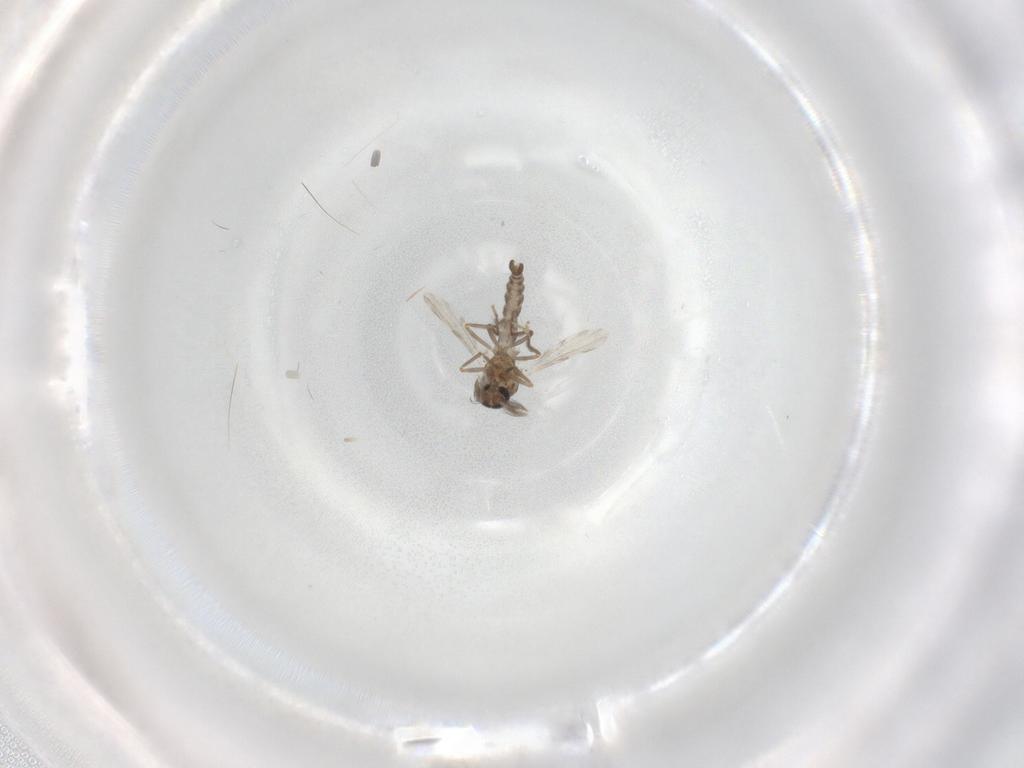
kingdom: Animalia
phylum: Arthropoda
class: Insecta
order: Diptera
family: Ceratopogonidae
